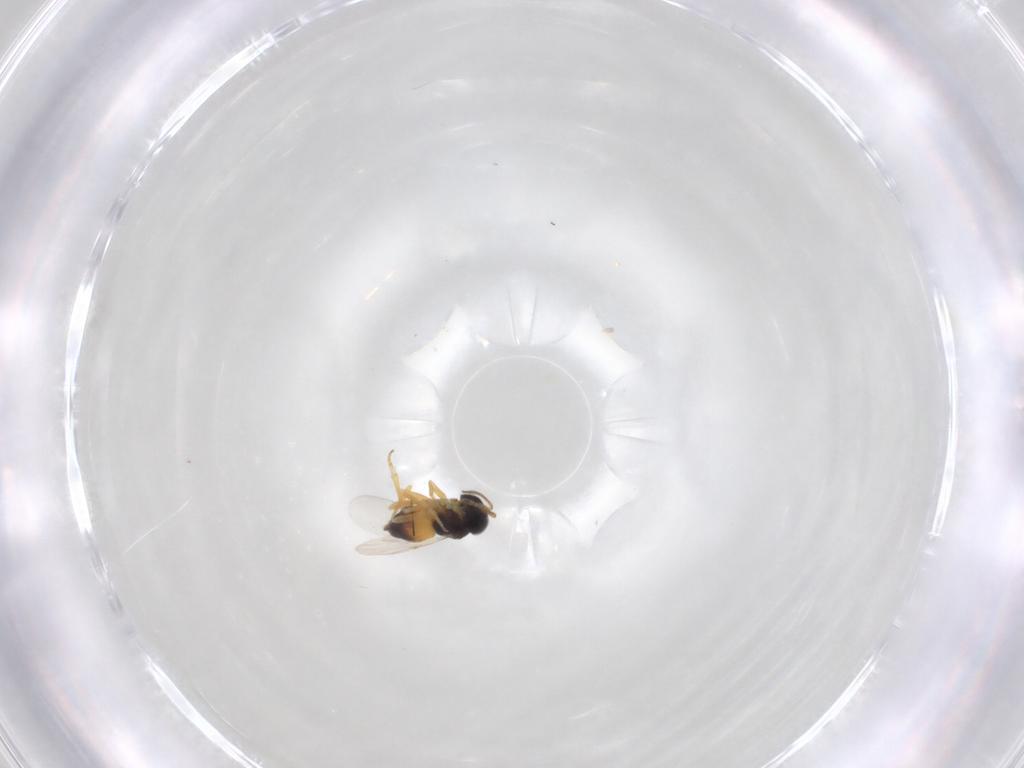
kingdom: Animalia
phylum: Arthropoda
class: Insecta
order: Hymenoptera
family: Encyrtidae
